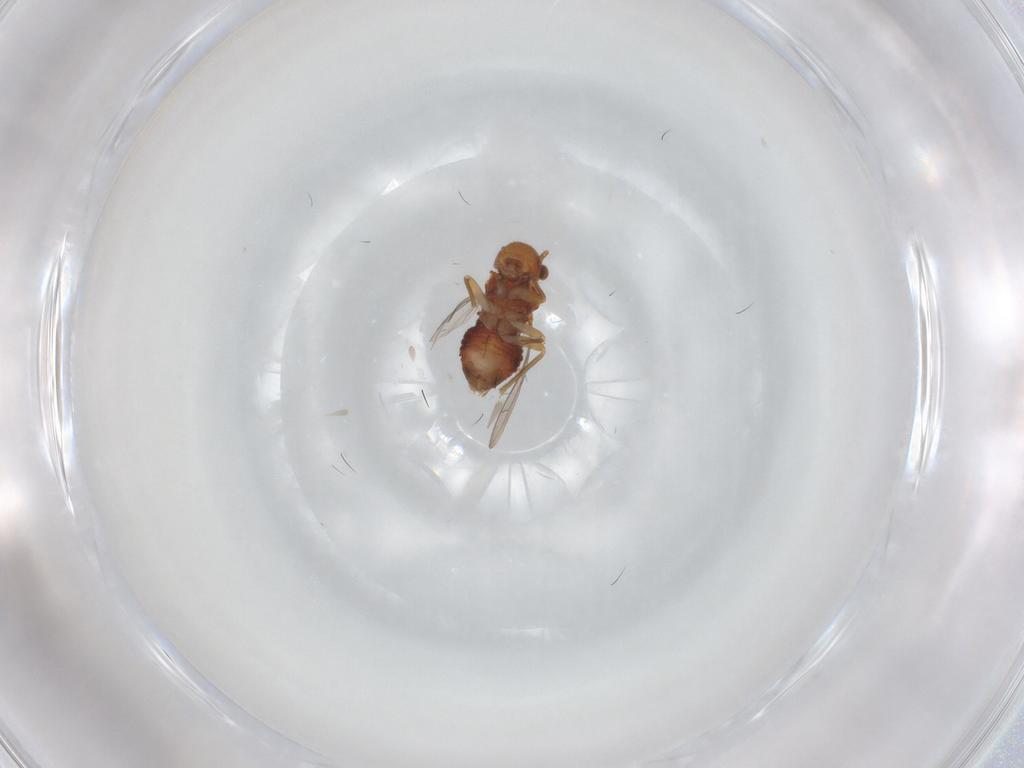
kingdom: Animalia
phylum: Arthropoda
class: Insecta
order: Psocodea
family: Ectopsocidae
